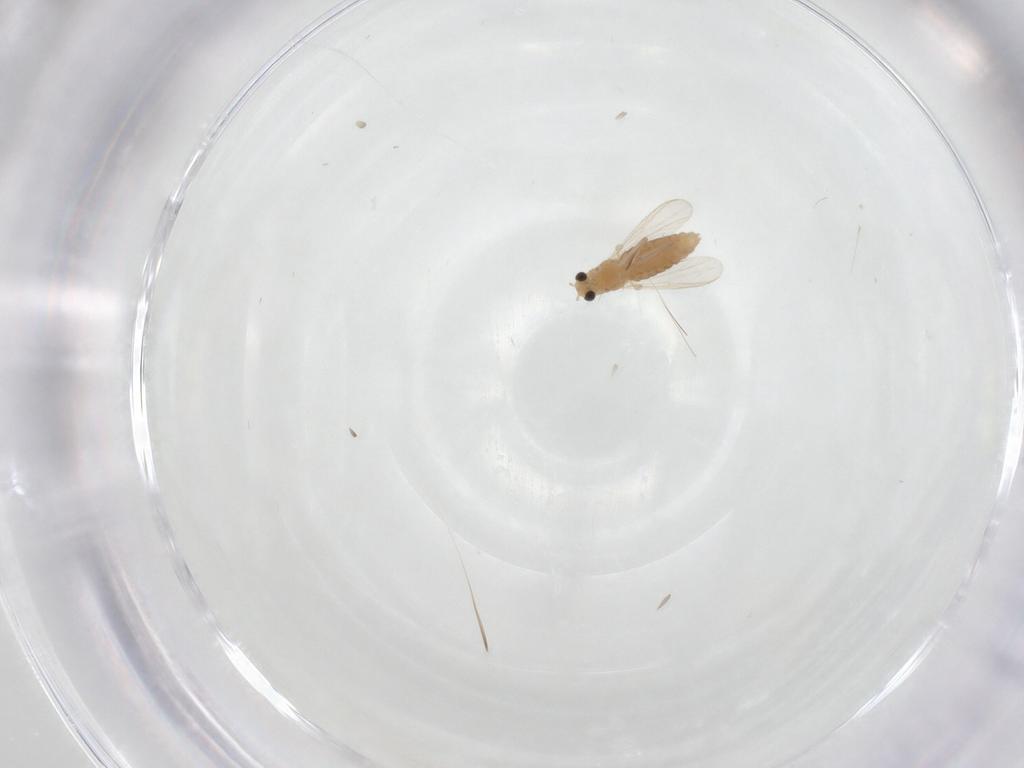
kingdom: Animalia
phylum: Arthropoda
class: Insecta
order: Diptera
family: Chironomidae
